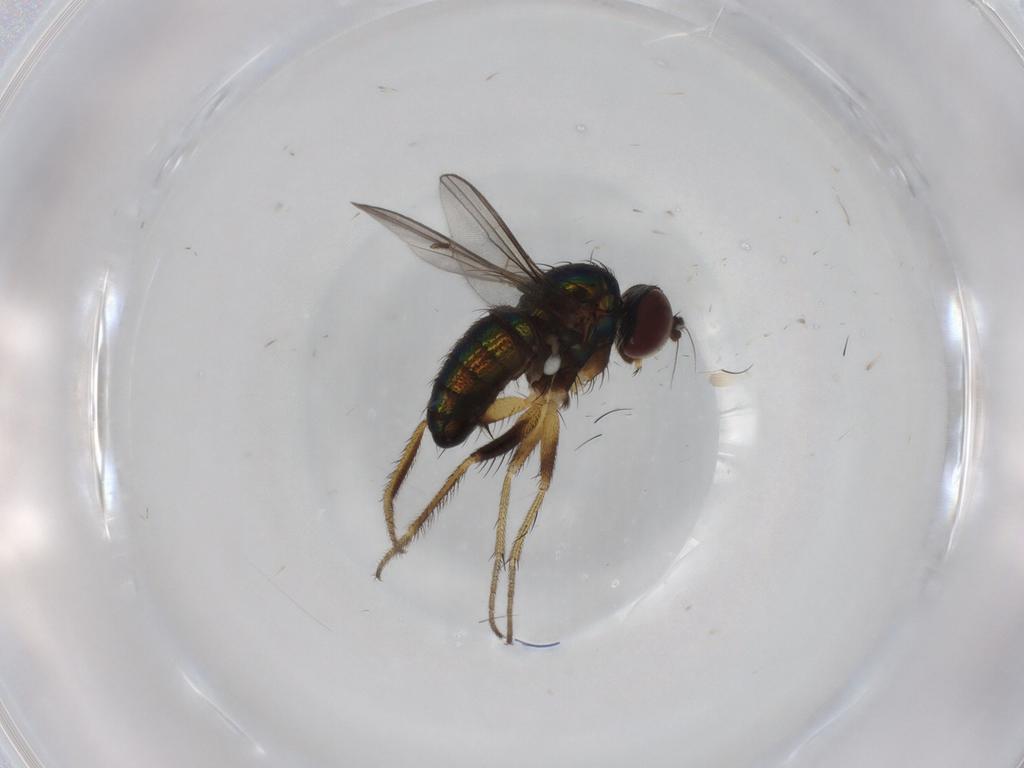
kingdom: Animalia
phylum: Arthropoda
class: Insecta
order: Diptera
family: Dolichopodidae
